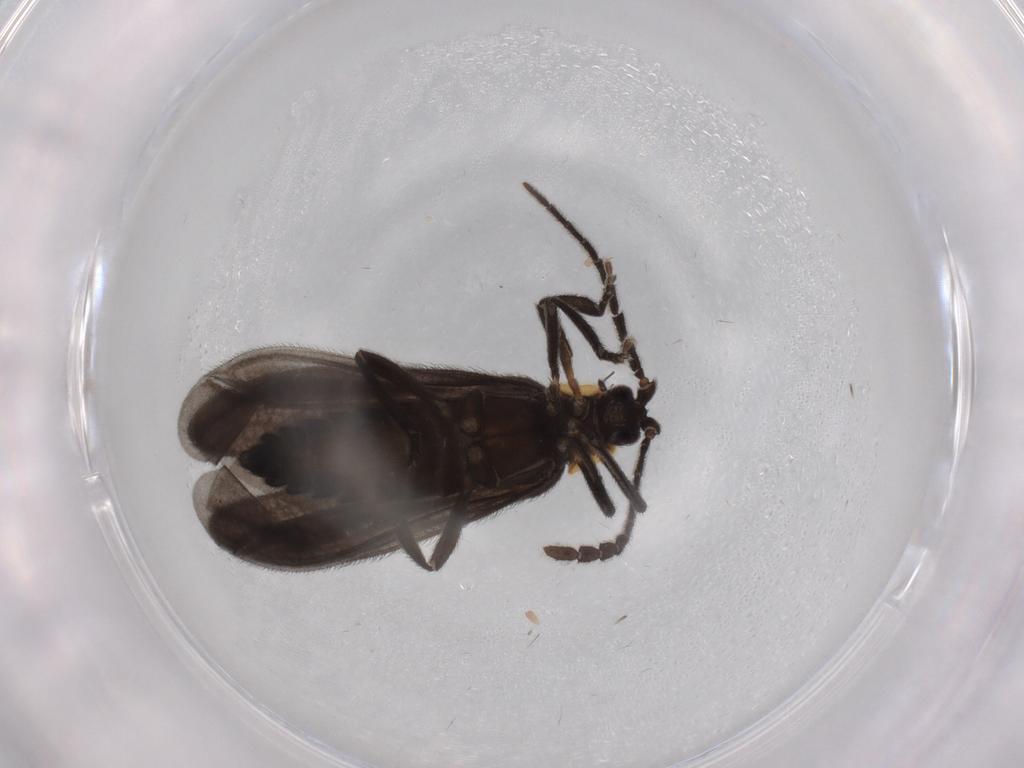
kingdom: Animalia
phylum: Arthropoda
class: Insecta
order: Coleoptera
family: Lycidae
